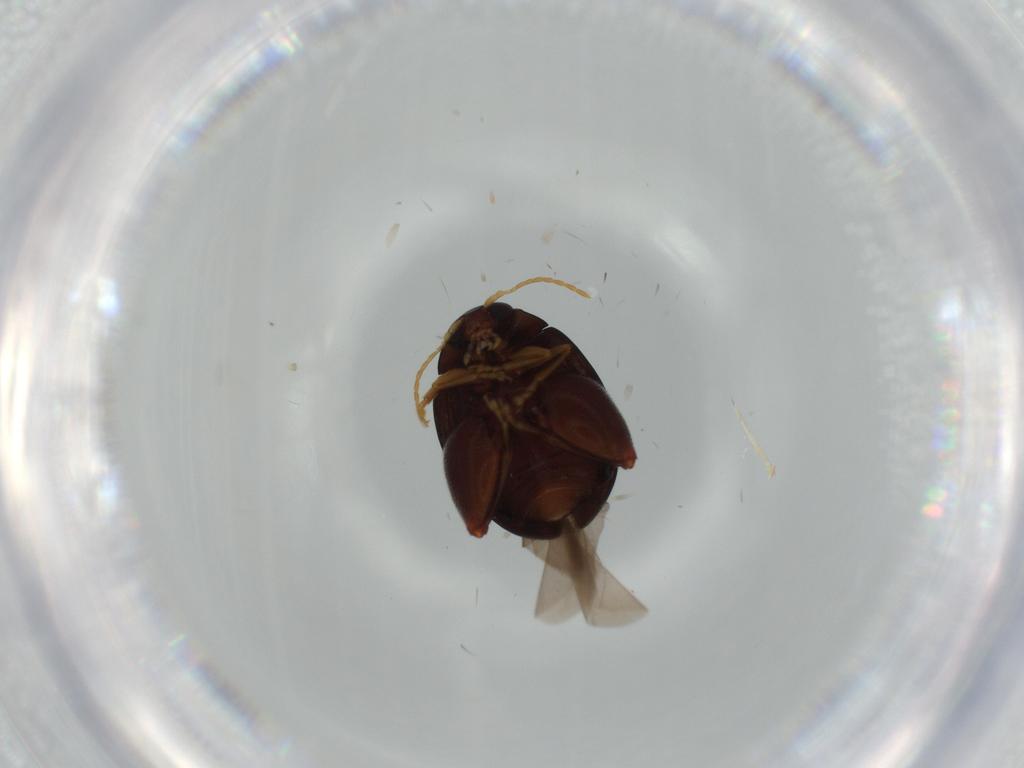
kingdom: Animalia
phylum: Arthropoda
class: Insecta
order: Coleoptera
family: Chrysomelidae
